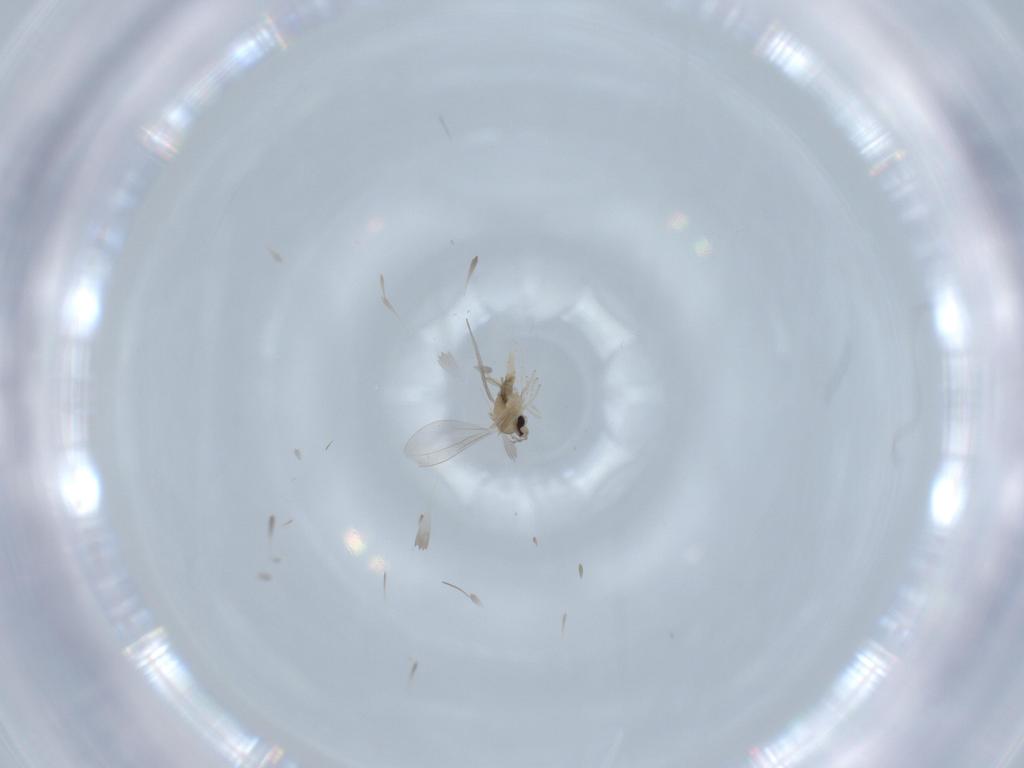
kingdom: Animalia
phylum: Arthropoda
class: Insecta
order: Diptera
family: Cecidomyiidae
